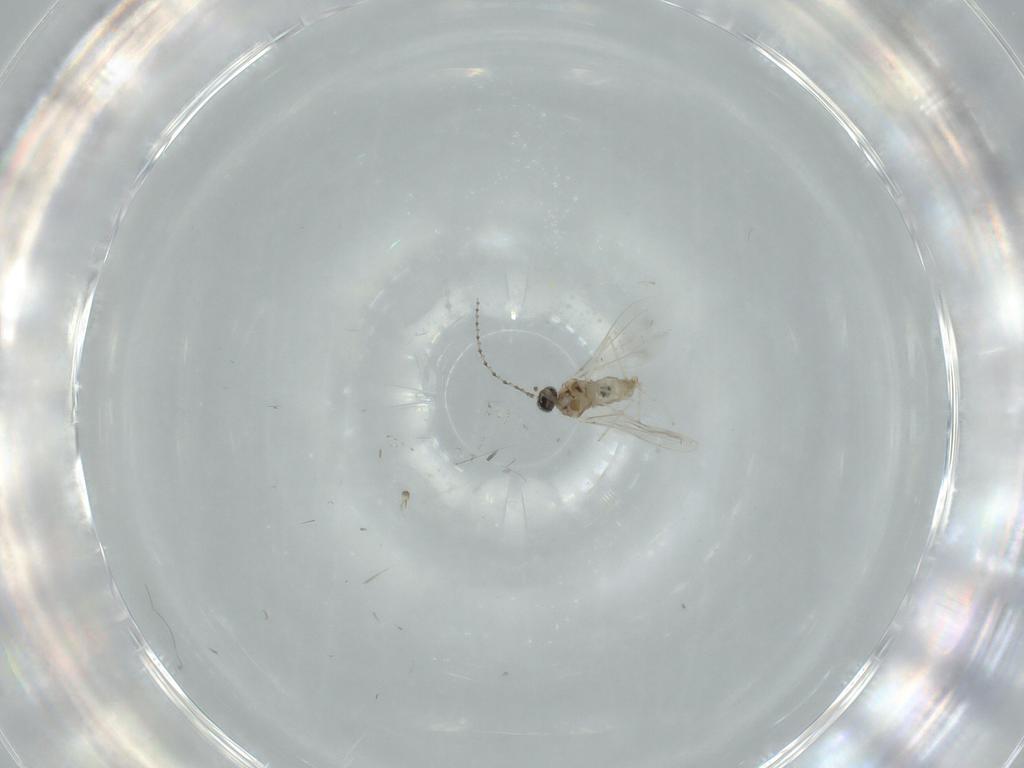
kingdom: Animalia
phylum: Arthropoda
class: Insecta
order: Diptera
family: Cecidomyiidae
